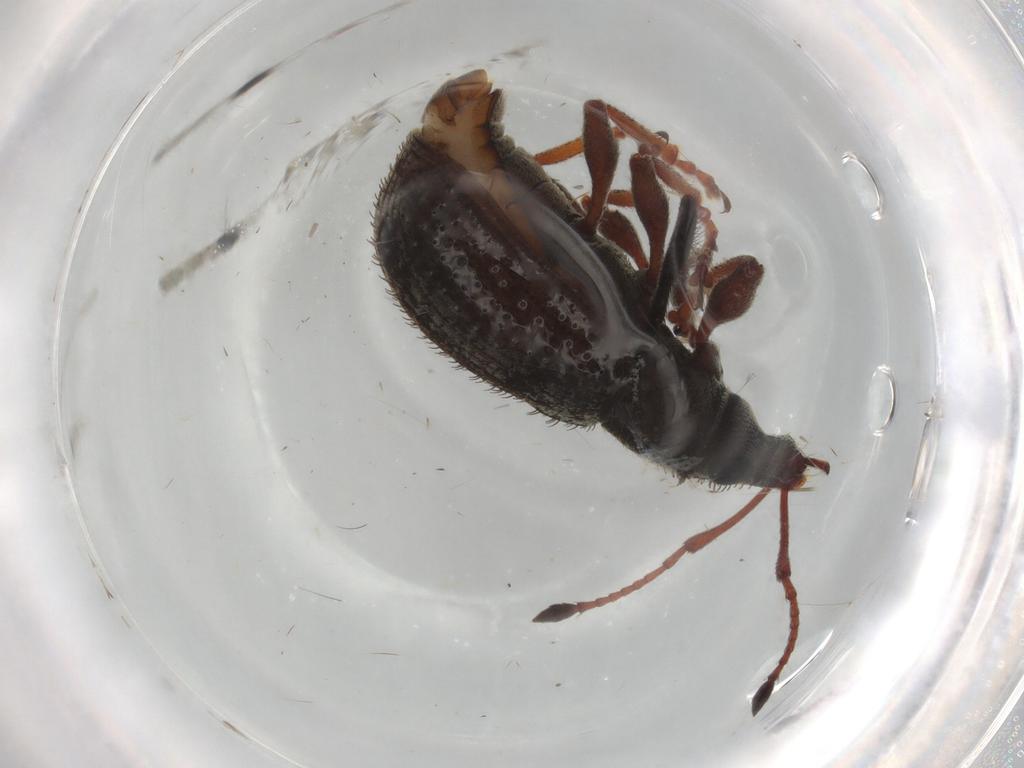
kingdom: Animalia
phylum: Arthropoda
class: Insecta
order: Coleoptera
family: Curculionidae
